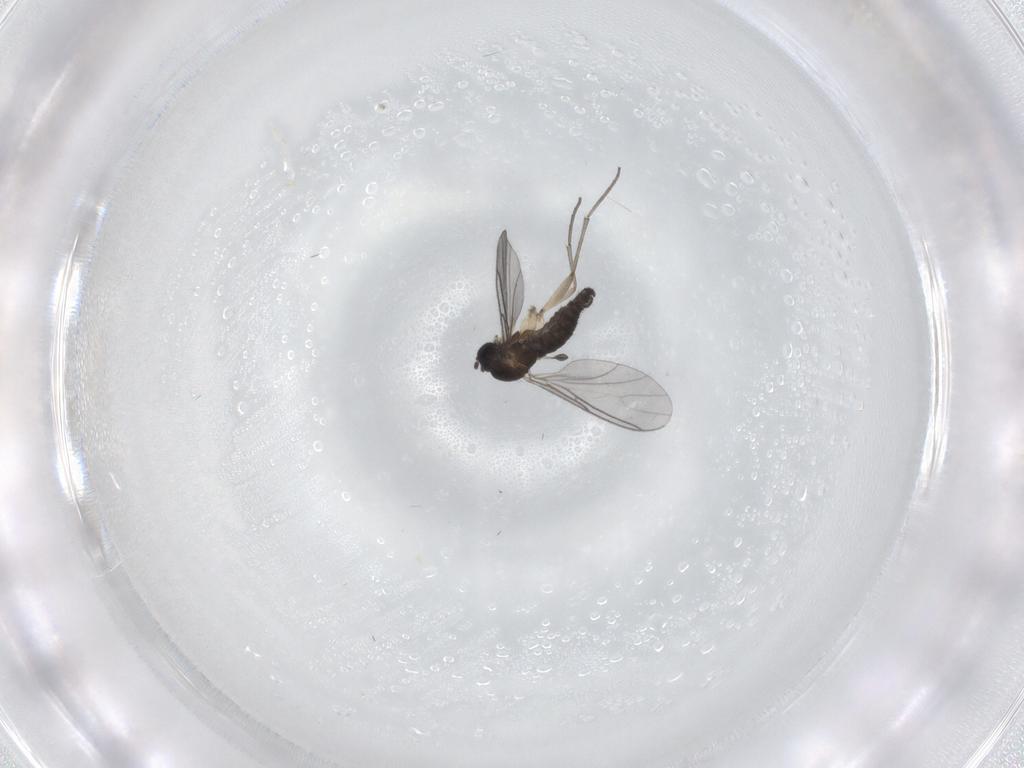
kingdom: Animalia
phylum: Arthropoda
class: Insecta
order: Diptera
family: Sciaridae
